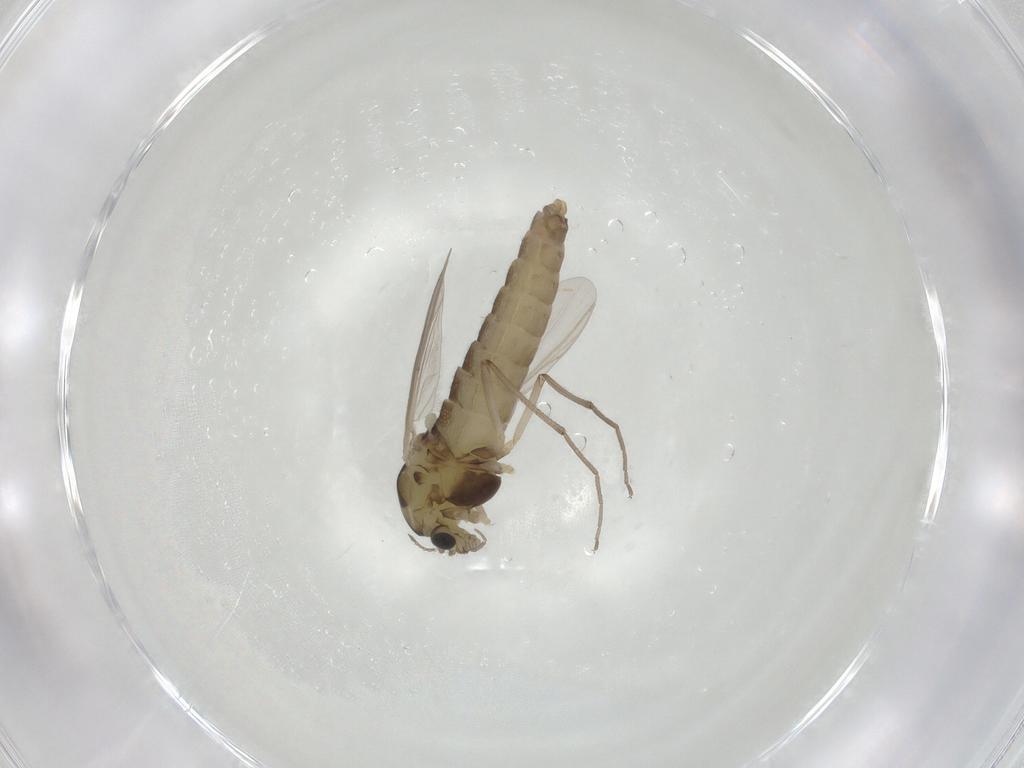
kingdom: Animalia
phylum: Arthropoda
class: Insecta
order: Diptera
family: Chironomidae
